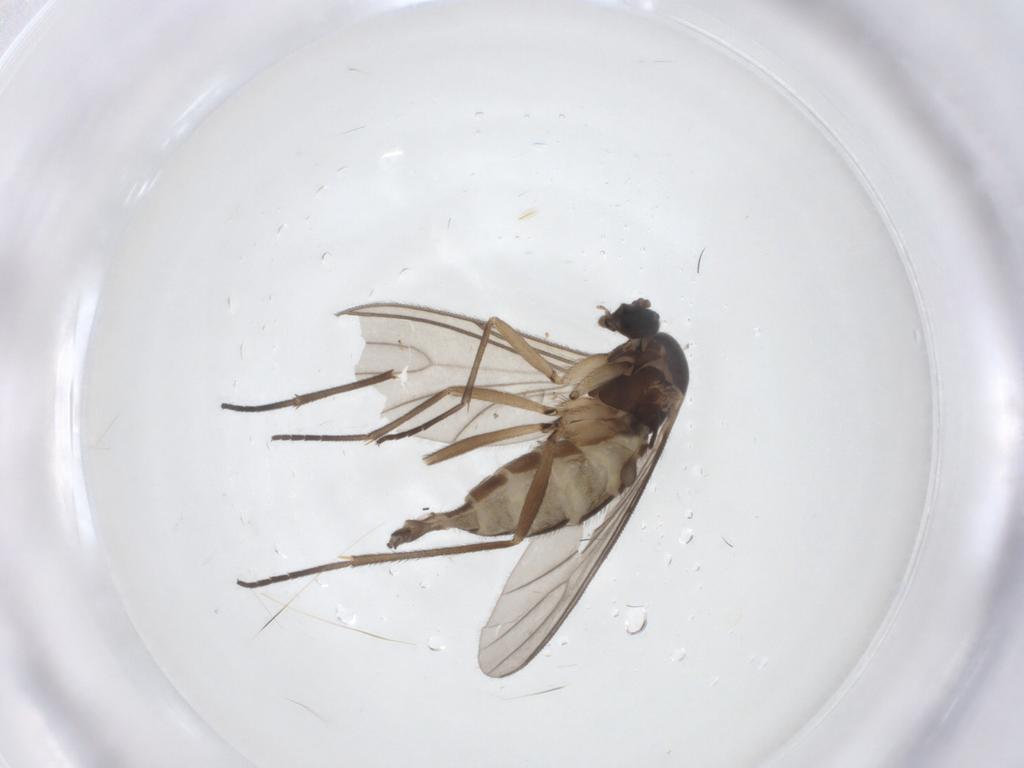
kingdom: Animalia
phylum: Arthropoda
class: Insecta
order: Diptera
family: Sciaridae
